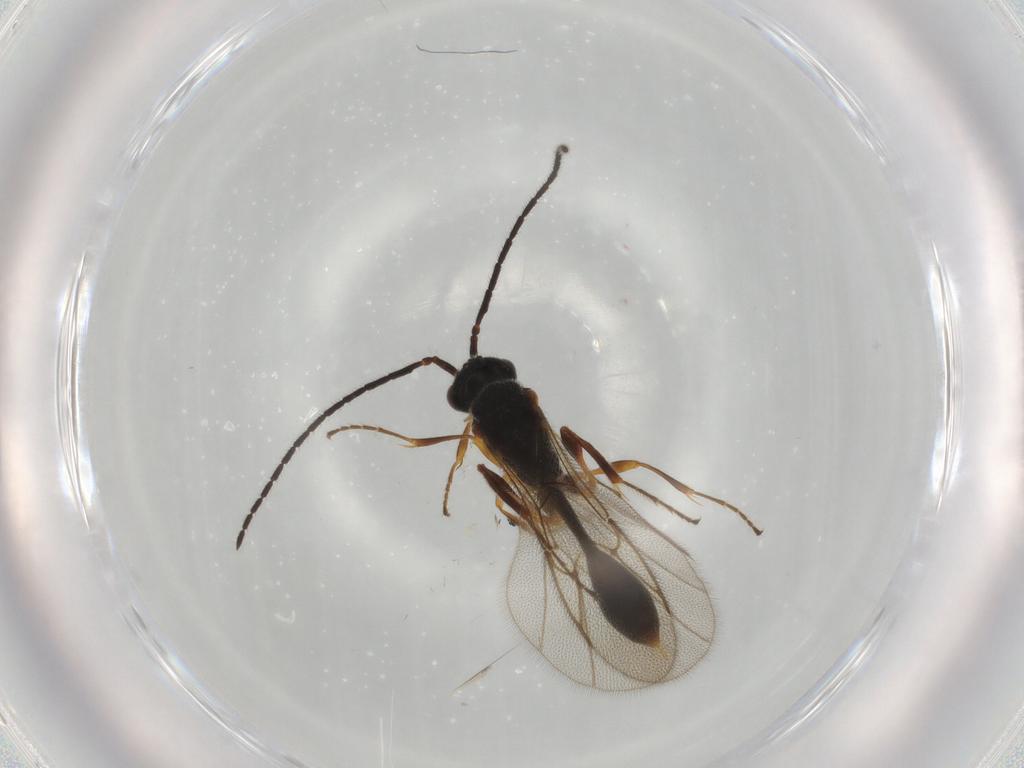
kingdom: Animalia
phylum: Arthropoda
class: Insecta
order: Hymenoptera
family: Diapriidae
